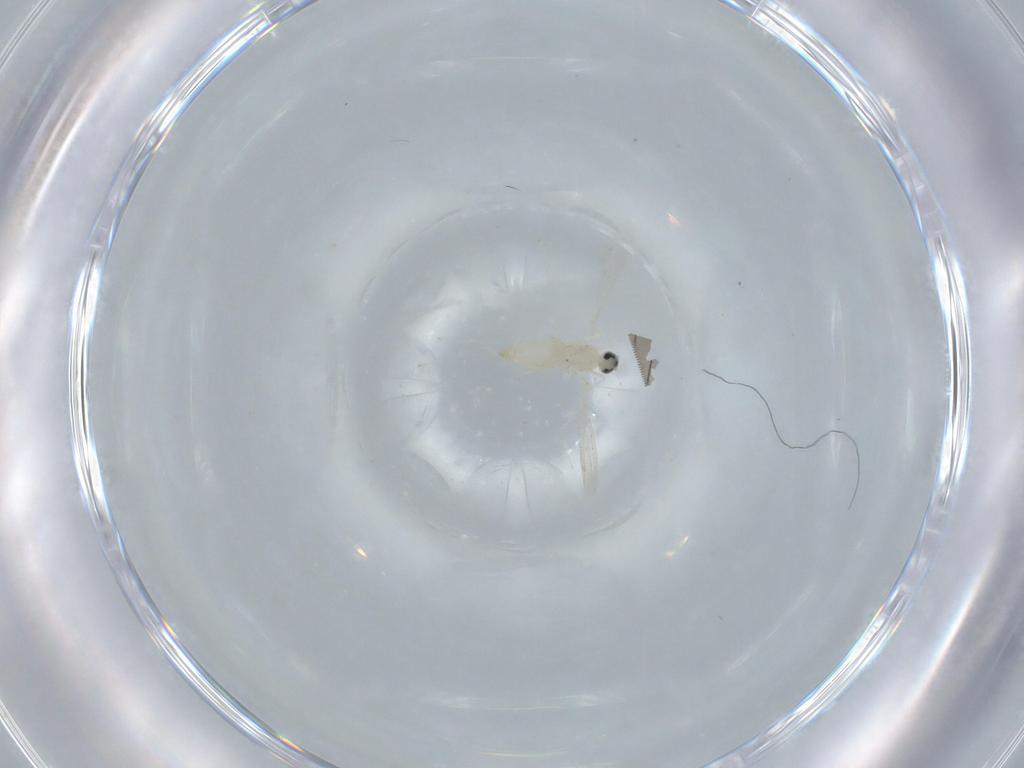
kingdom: Animalia
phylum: Arthropoda
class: Insecta
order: Diptera
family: Cecidomyiidae
